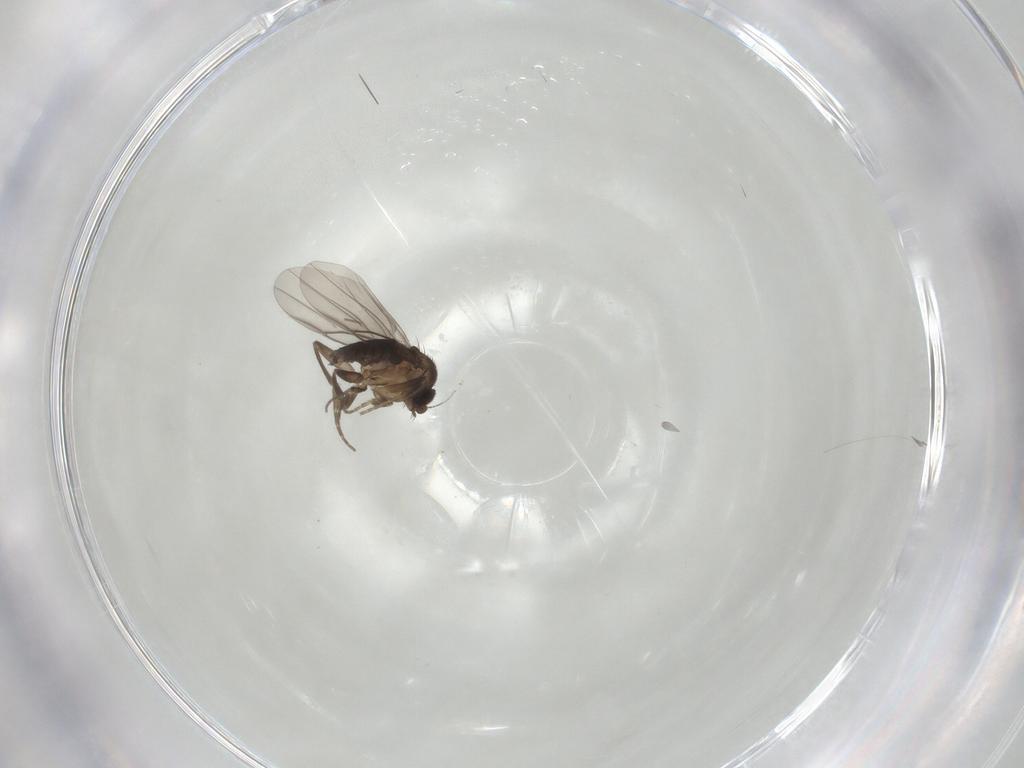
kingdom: Animalia
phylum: Arthropoda
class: Insecta
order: Diptera
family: Phoridae
